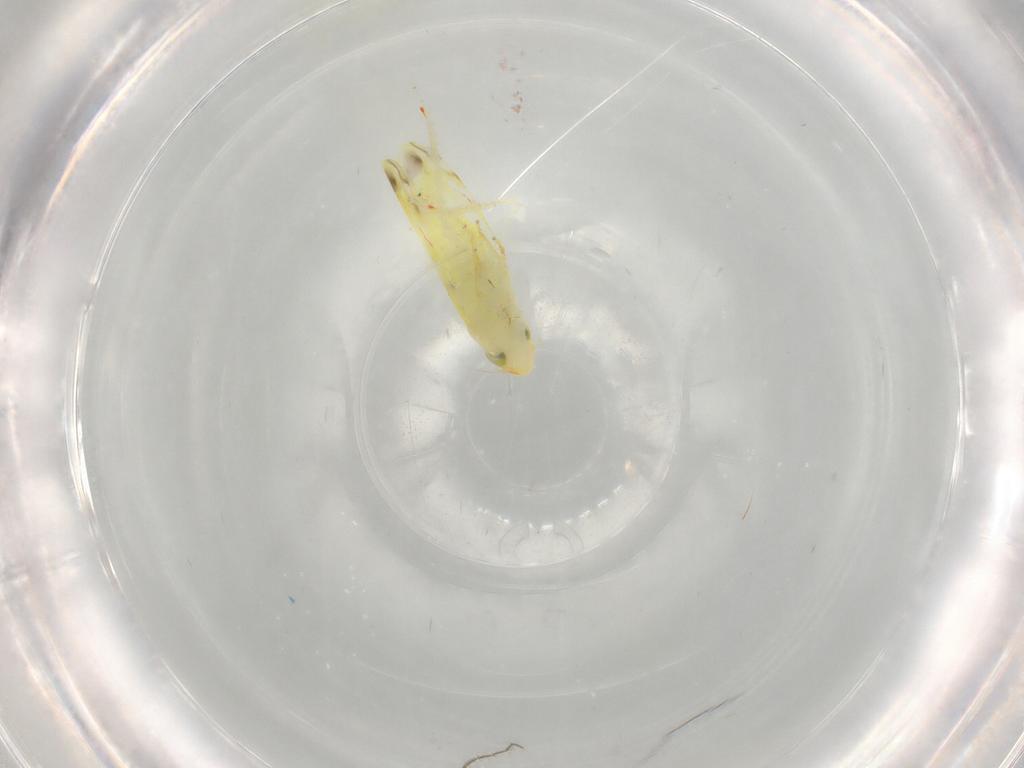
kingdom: Animalia
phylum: Arthropoda
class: Insecta
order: Hemiptera
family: Cicadellidae
